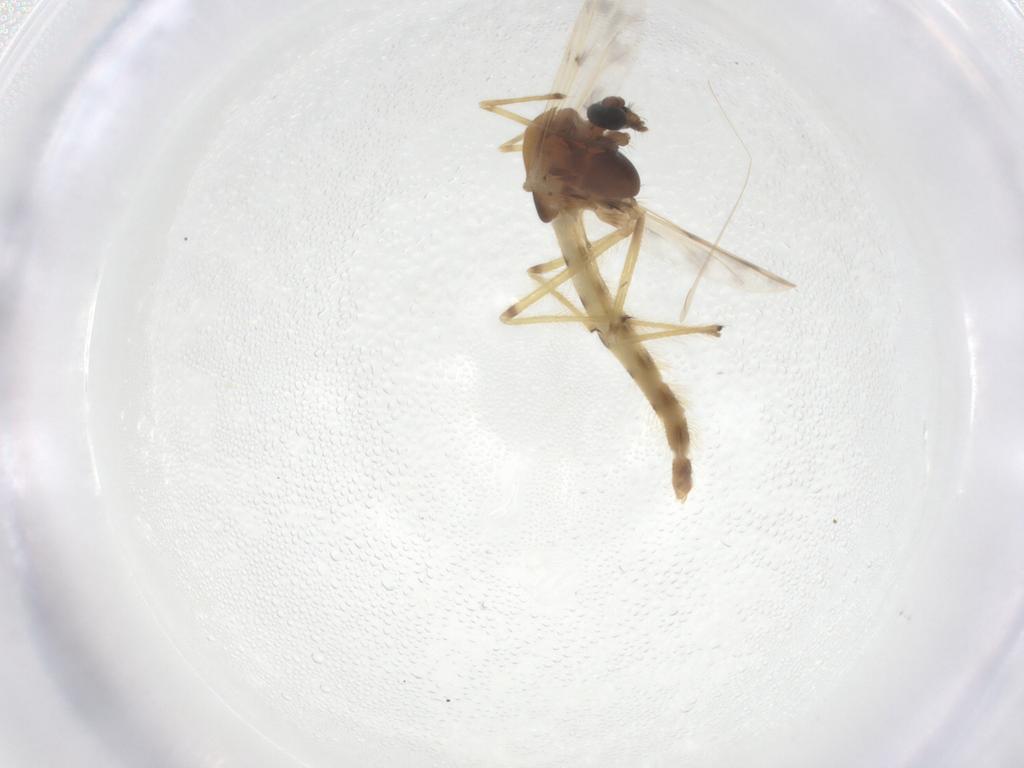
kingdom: Animalia
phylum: Arthropoda
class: Insecta
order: Diptera
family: Chironomidae
